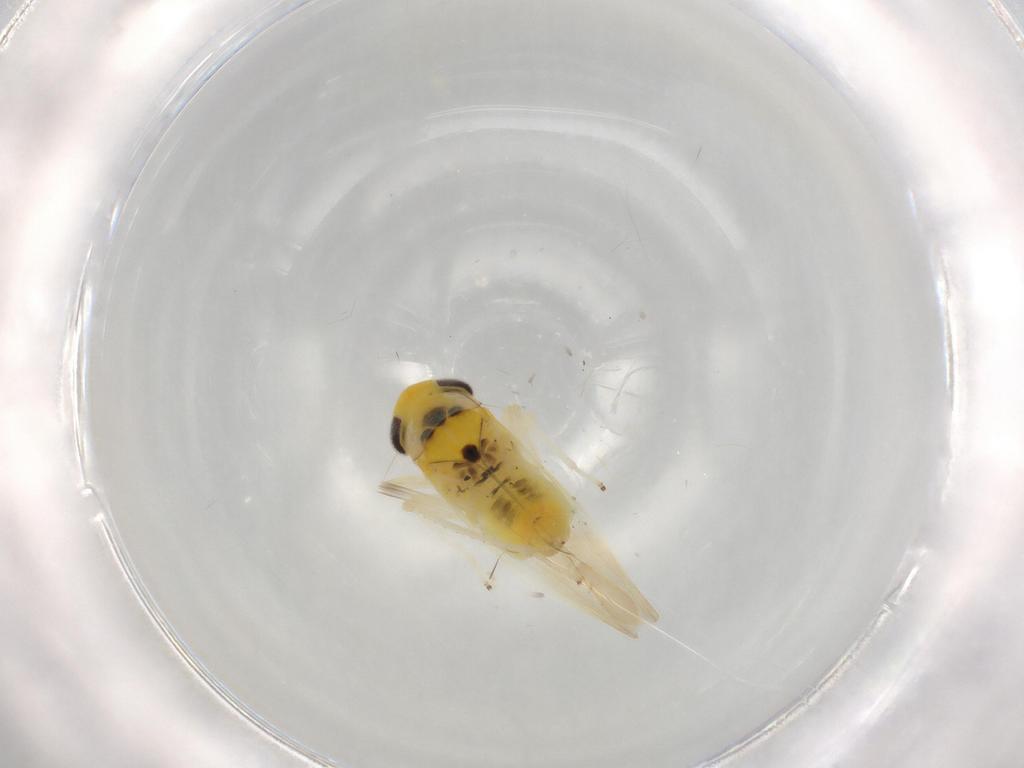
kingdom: Animalia
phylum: Arthropoda
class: Insecta
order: Hemiptera
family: Cicadellidae
